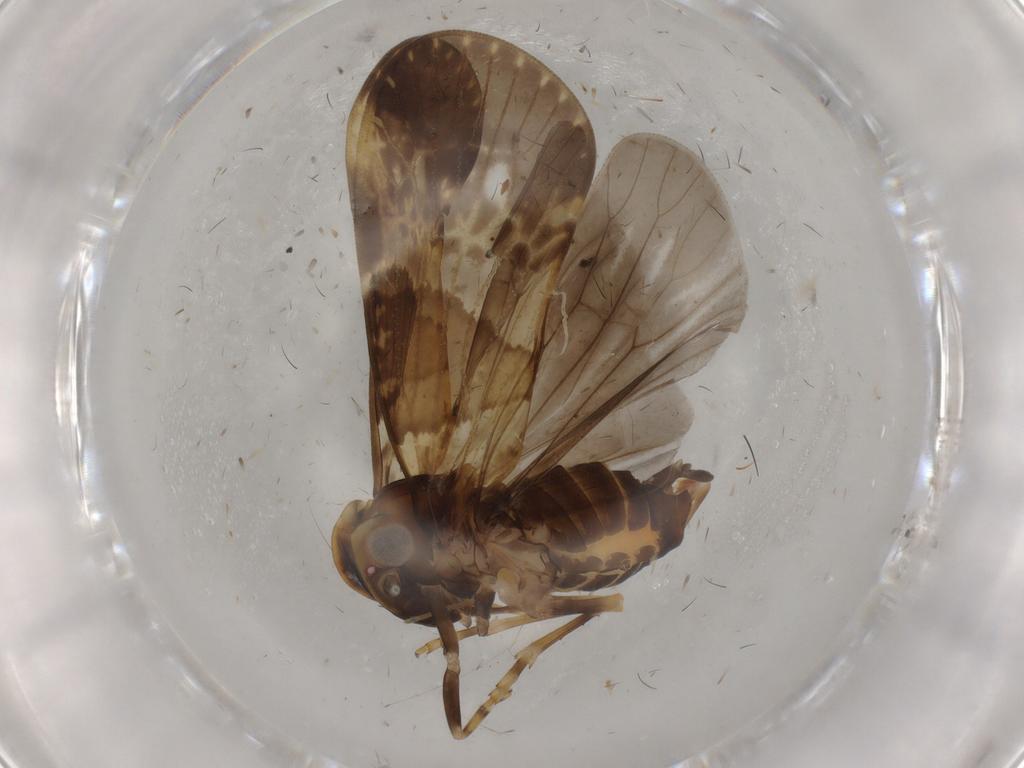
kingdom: Animalia
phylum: Arthropoda
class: Insecta
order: Hemiptera
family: Cixiidae
